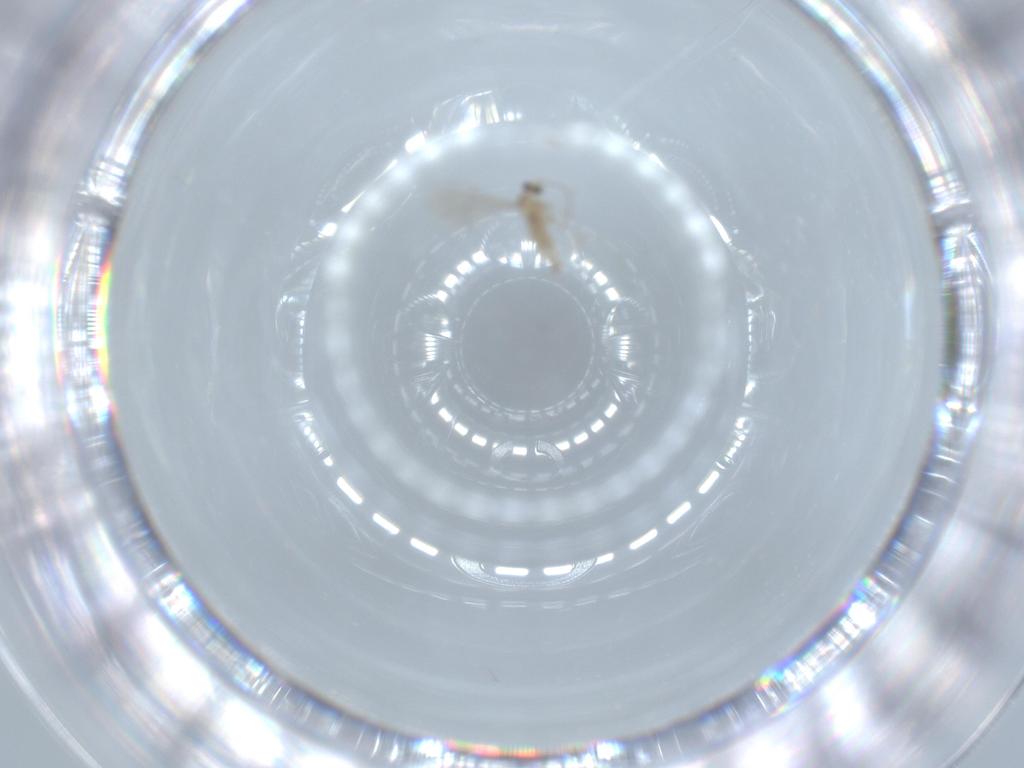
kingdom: Animalia
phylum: Arthropoda
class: Insecta
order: Diptera
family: Cecidomyiidae
